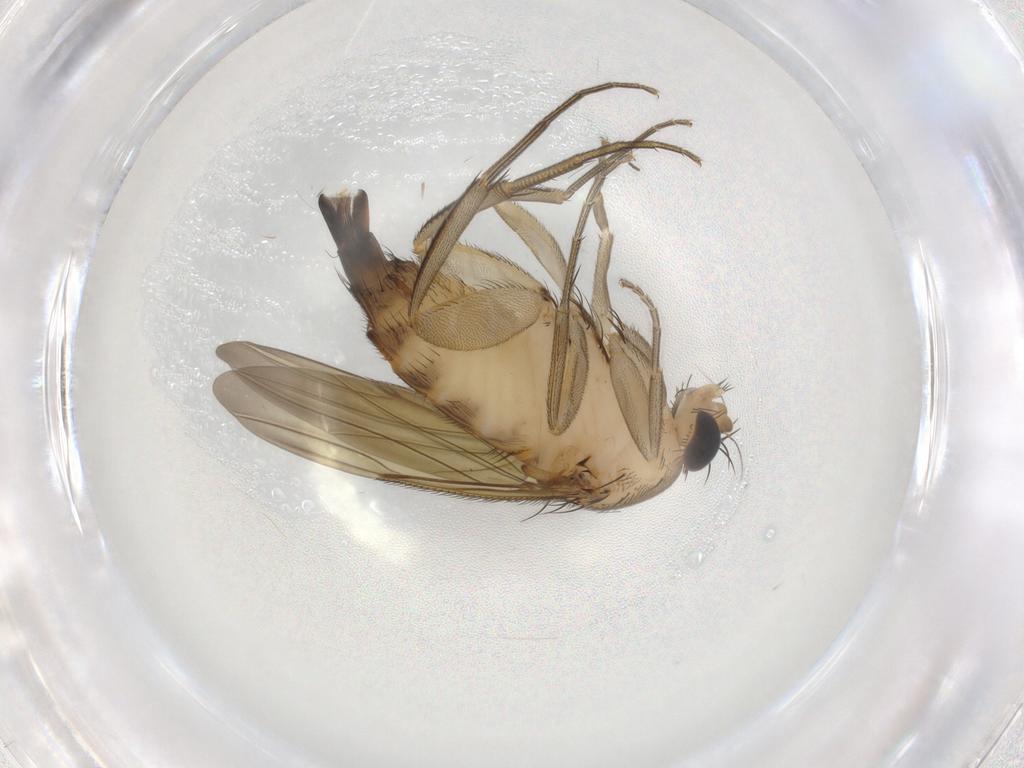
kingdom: Animalia
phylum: Arthropoda
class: Insecta
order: Diptera
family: Phoridae
